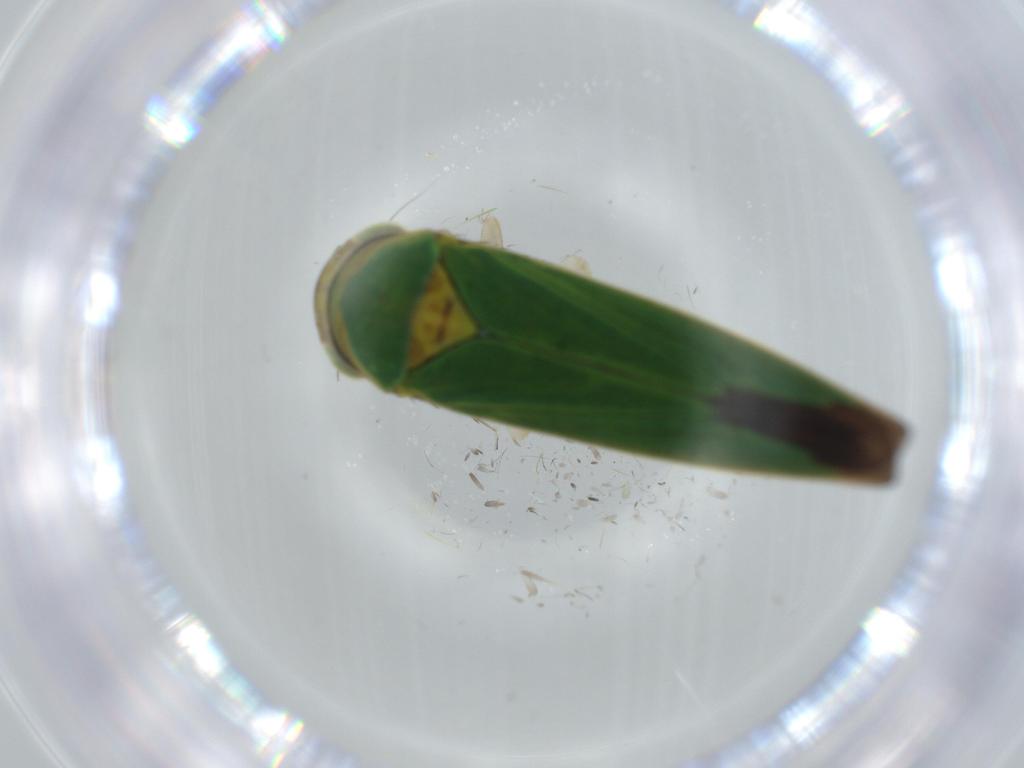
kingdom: Animalia
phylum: Arthropoda
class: Insecta
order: Hemiptera
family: Cicadellidae
